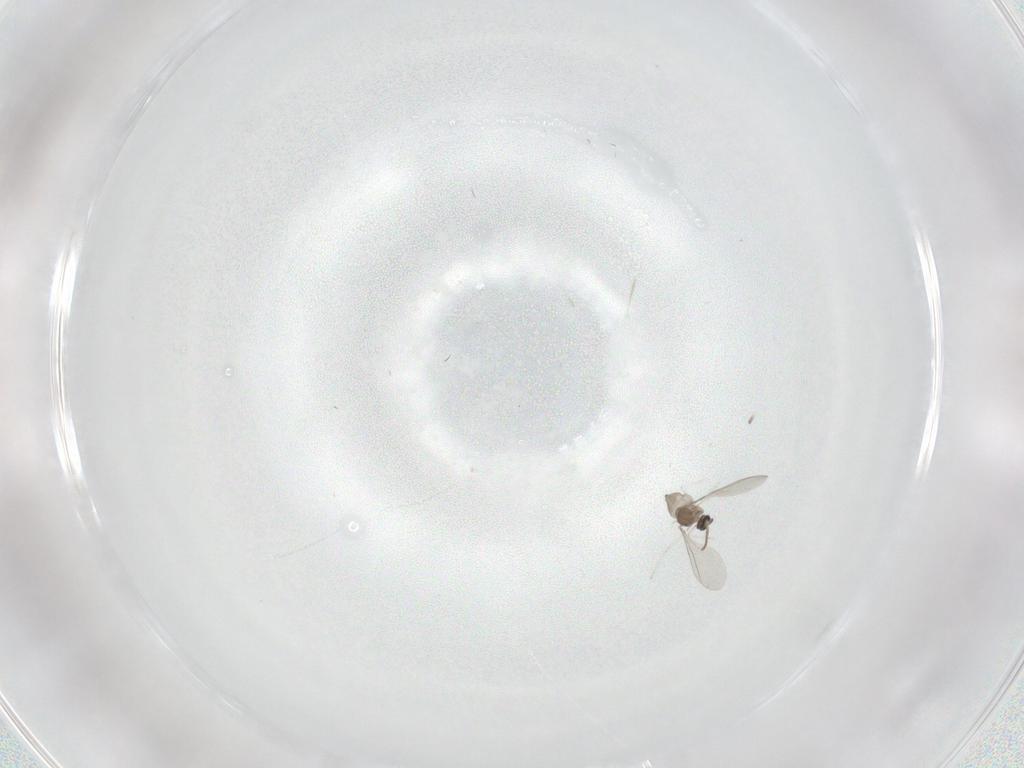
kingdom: Animalia
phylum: Arthropoda
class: Insecta
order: Diptera
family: Cecidomyiidae
